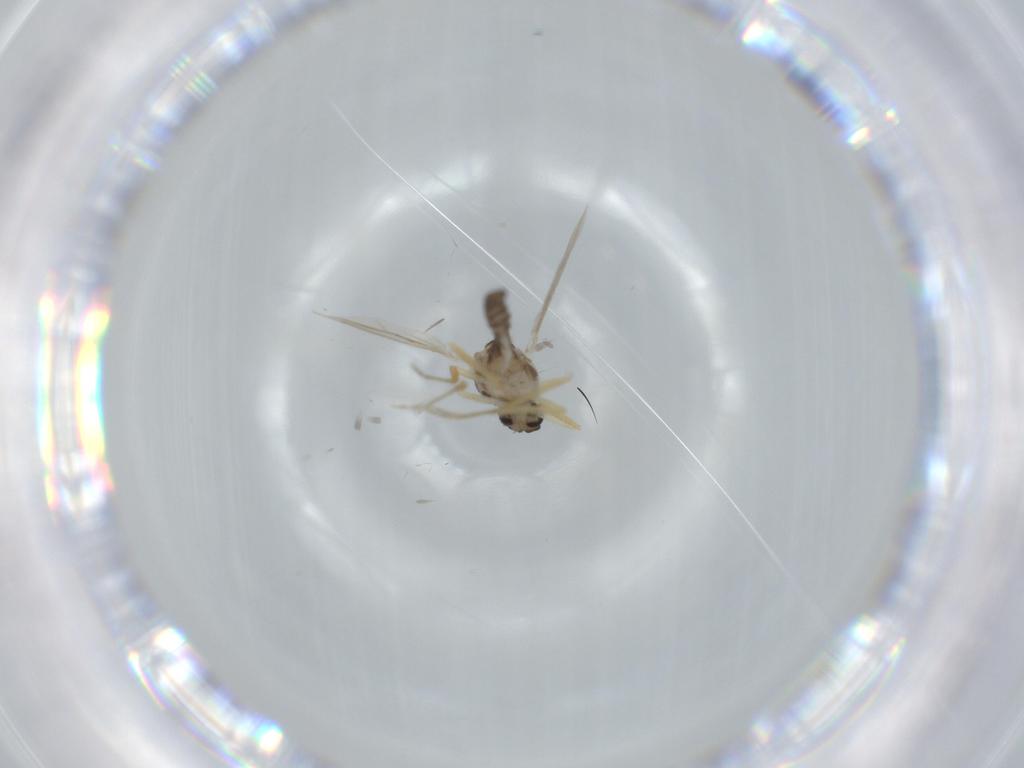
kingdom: Animalia
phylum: Arthropoda
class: Insecta
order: Diptera
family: Ceratopogonidae
